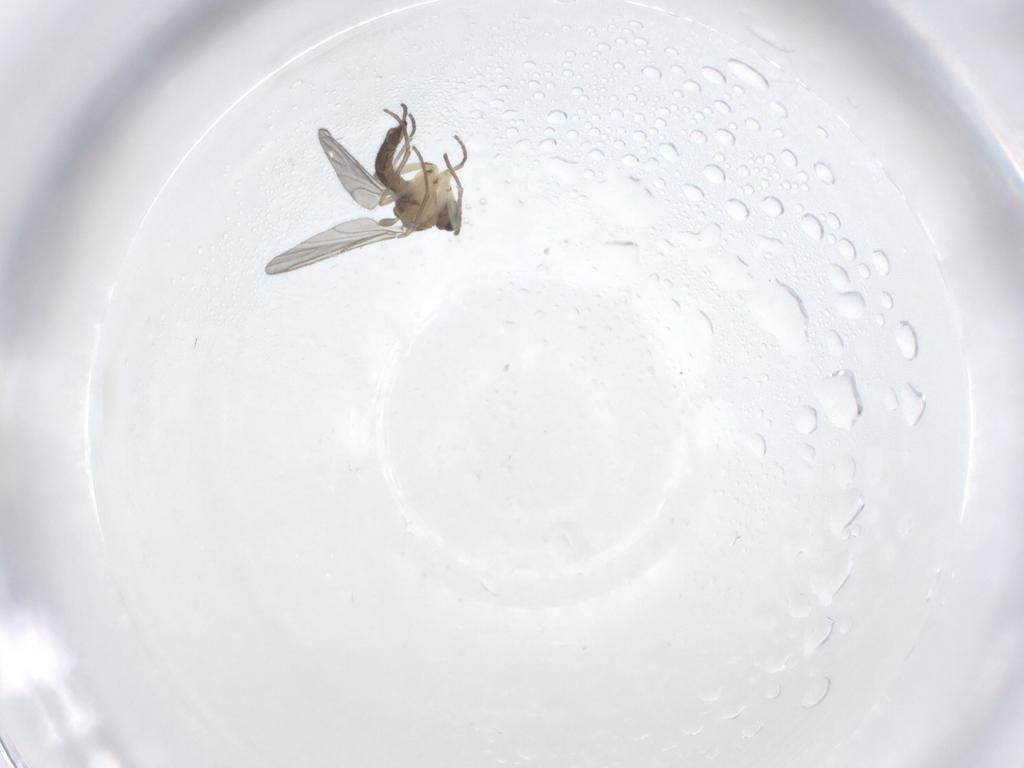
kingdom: Animalia
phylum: Arthropoda
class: Insecta
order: Diptera
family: Sciaridae
